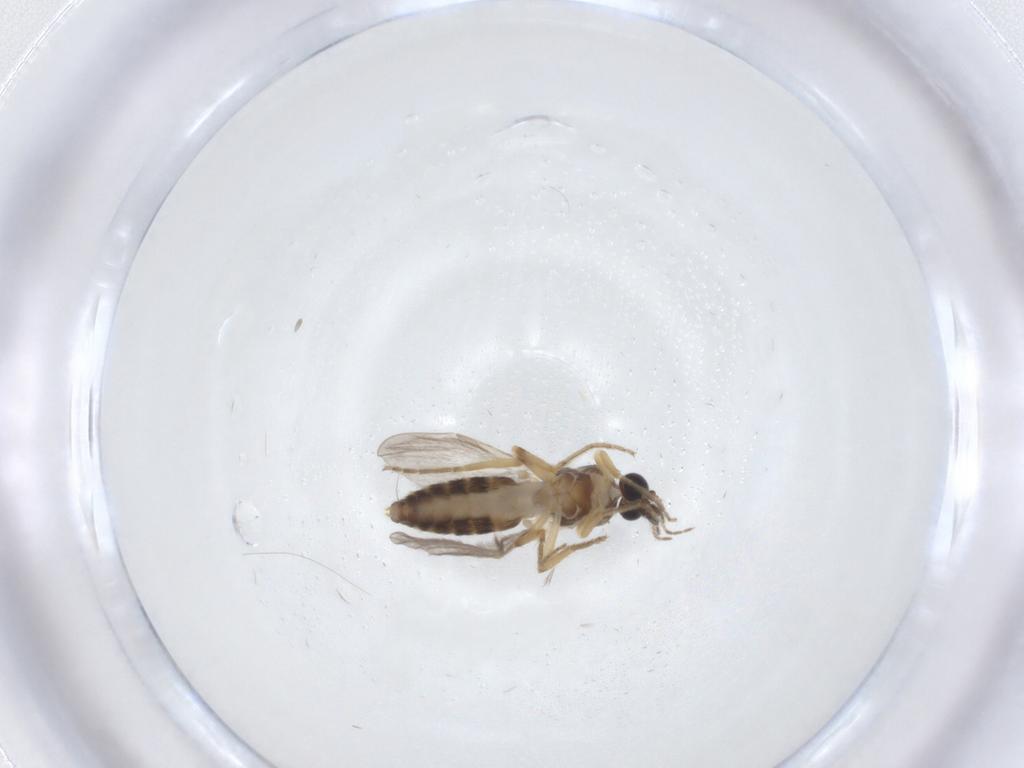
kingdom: Animalia
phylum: Arthropoda
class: Insecta
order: Diptera
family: Ceratopogonidae
